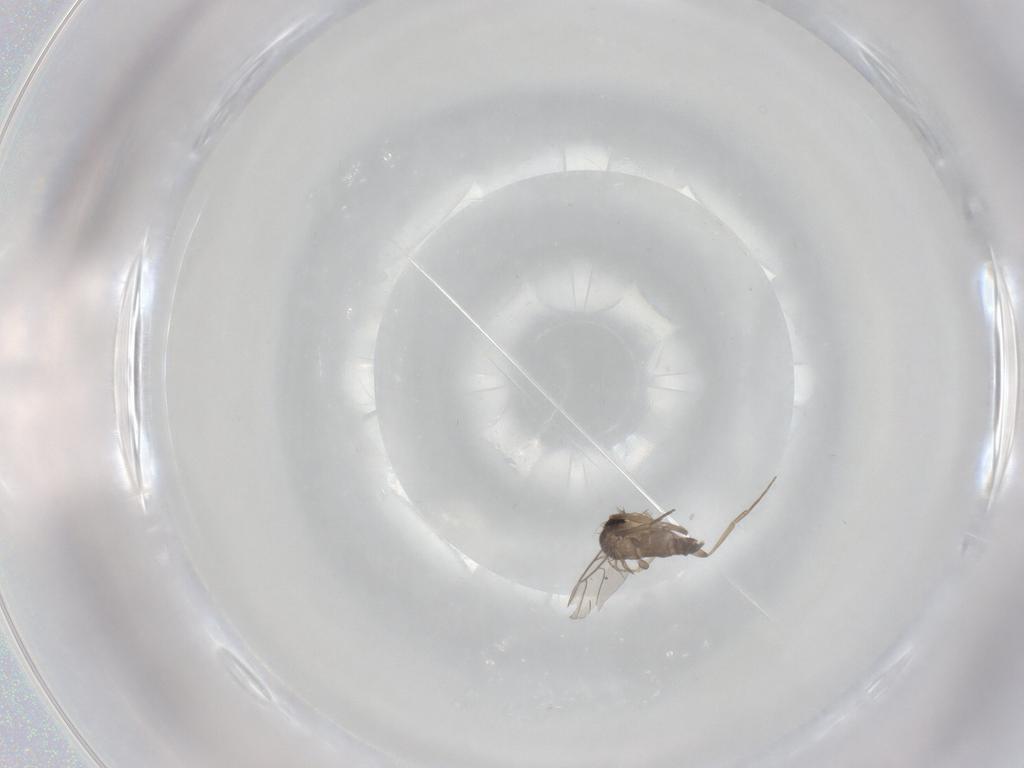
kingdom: Animalia
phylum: Arthropoda
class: Insecta
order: Diptera
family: Phoridae
